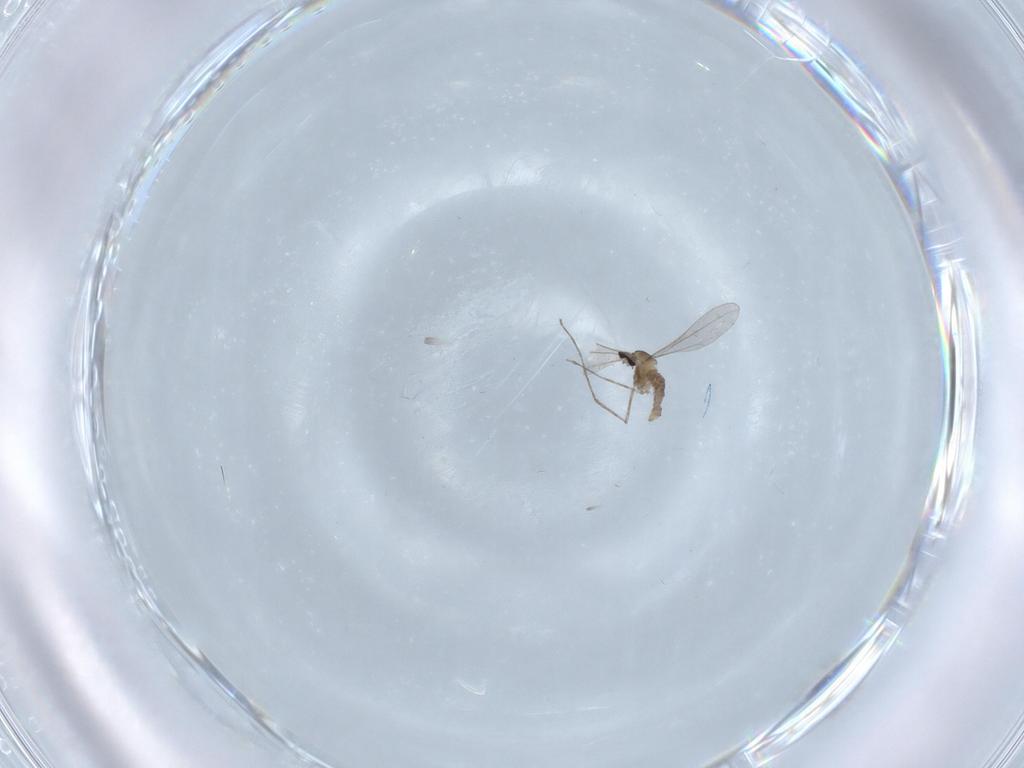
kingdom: Animalia
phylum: Arthropoda
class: Insecta
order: Diptera
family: Cecidomyiidae
